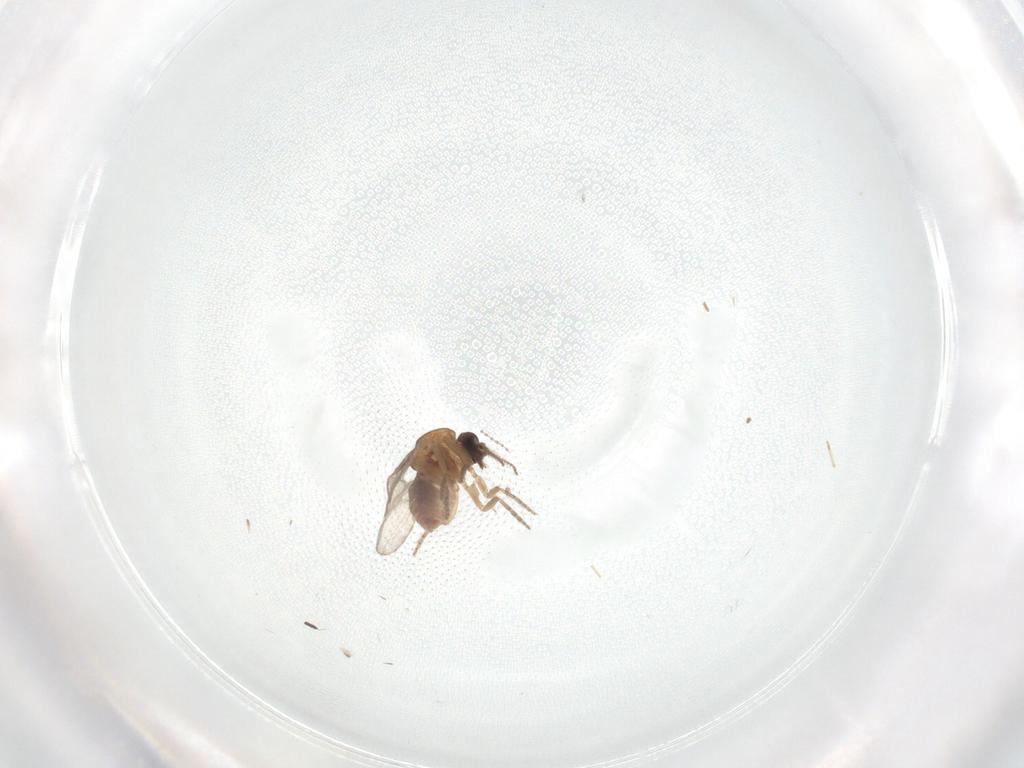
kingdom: Animalia
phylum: Arthropoda
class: Insecta
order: Diptera
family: Ceratopogonidae
